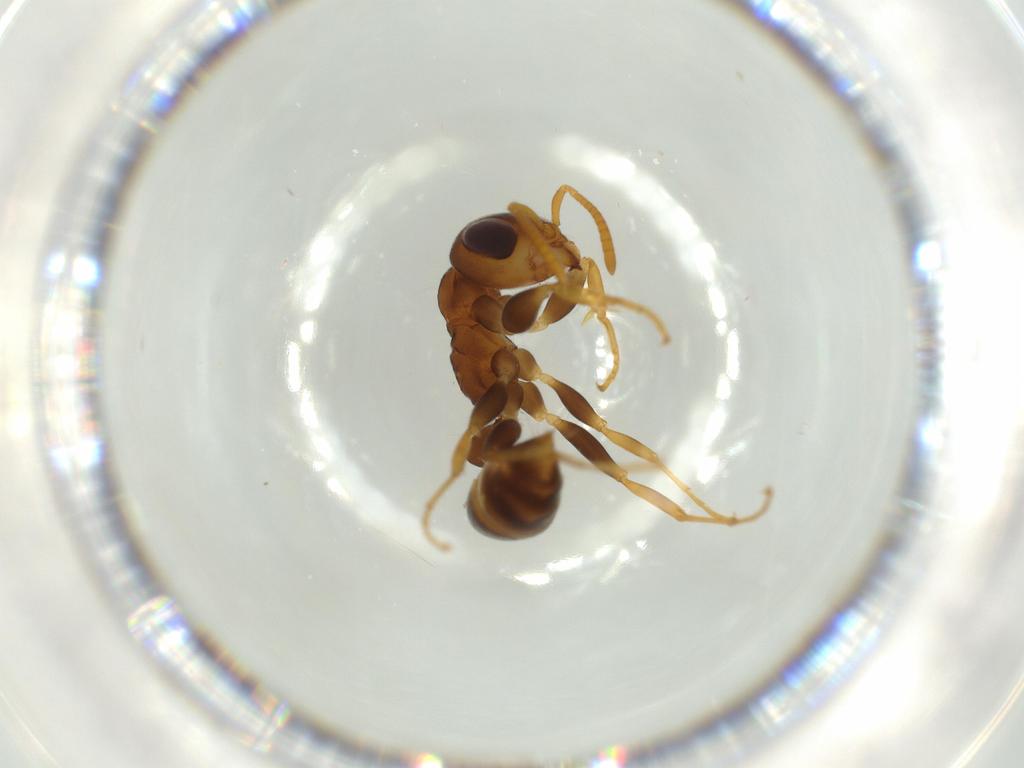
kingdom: Animalia
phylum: Arthropoda
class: Insecta
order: Hymenoptera
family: Formicidae
